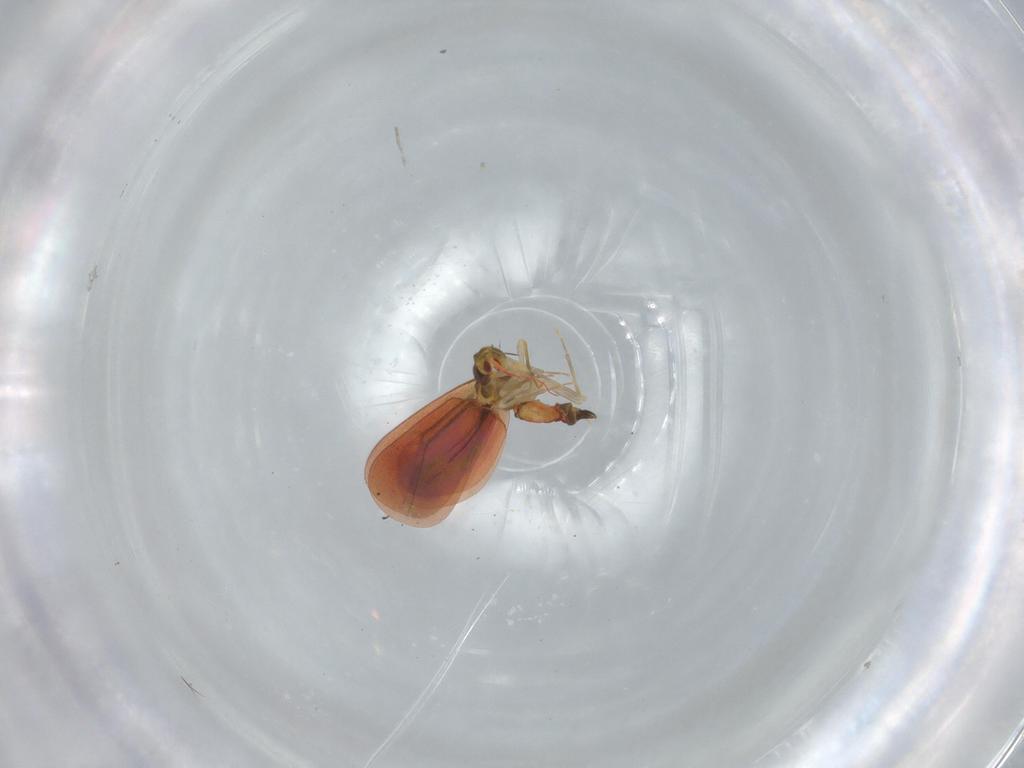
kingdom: Animalia
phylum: Arthropoda
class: Insecta
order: Hemiptera
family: Aleyrodidae
